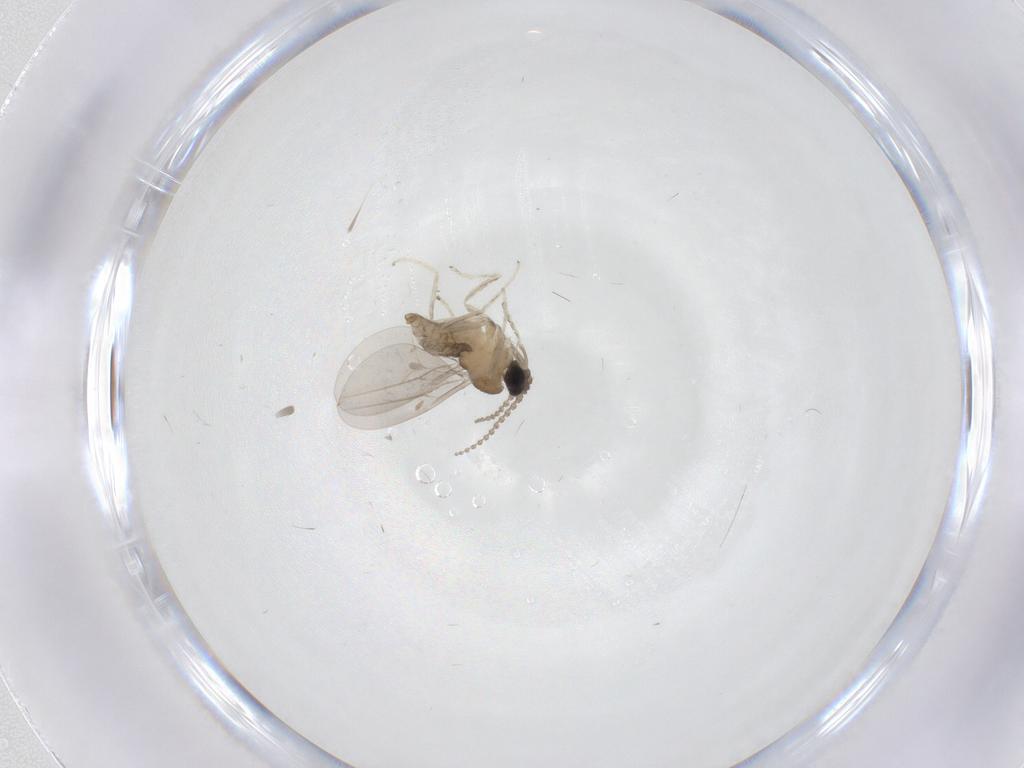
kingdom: Animalia
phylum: Arthropoda
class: Insecta
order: Diptera
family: Cecidomyiidae
